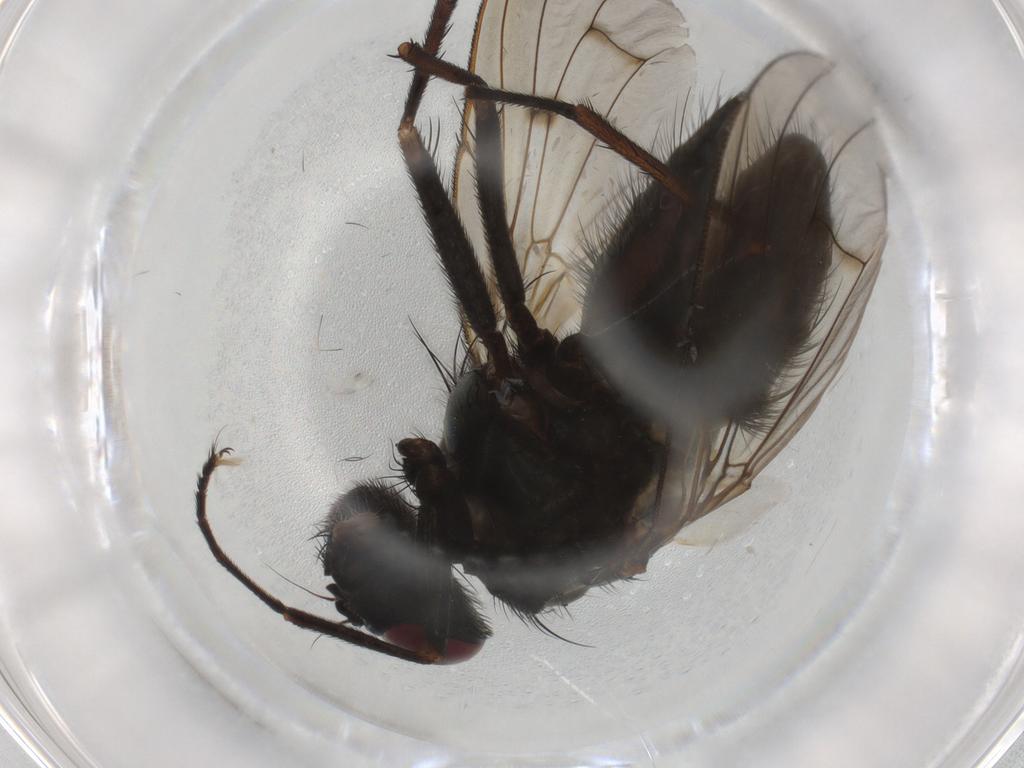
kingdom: Animalia
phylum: Arthropoda
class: Insecta
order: Diptera
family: Muscidae
